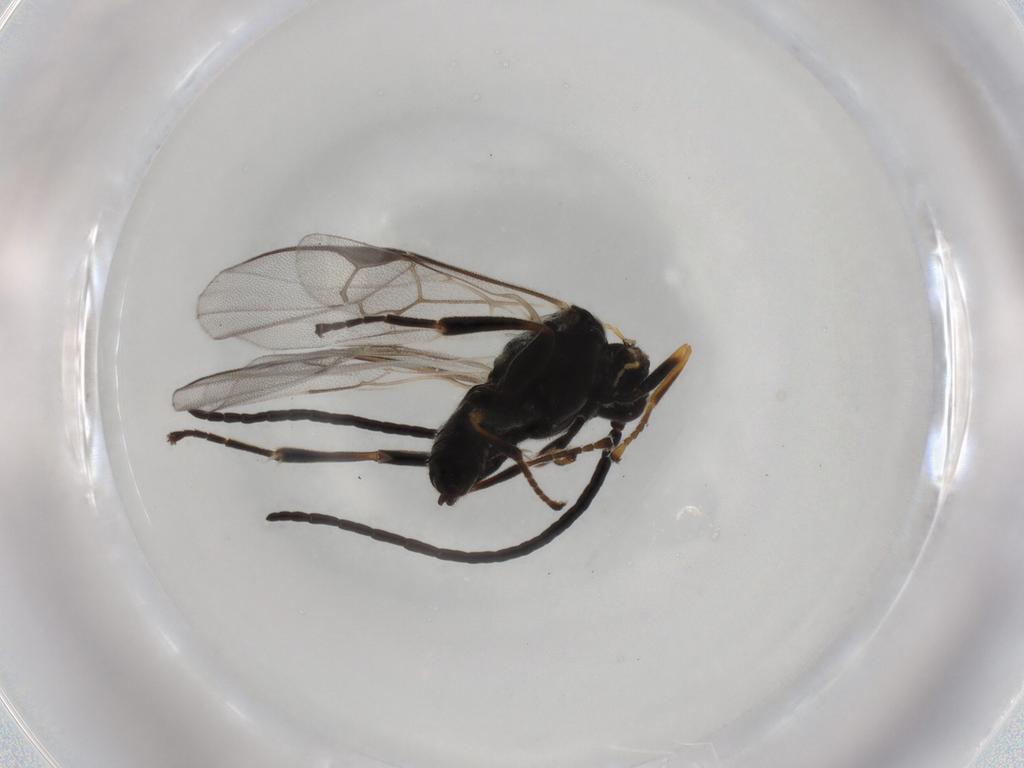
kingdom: Animalia
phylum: Arthropoda
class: Insecta
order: Hymenoptera
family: Braconidae
